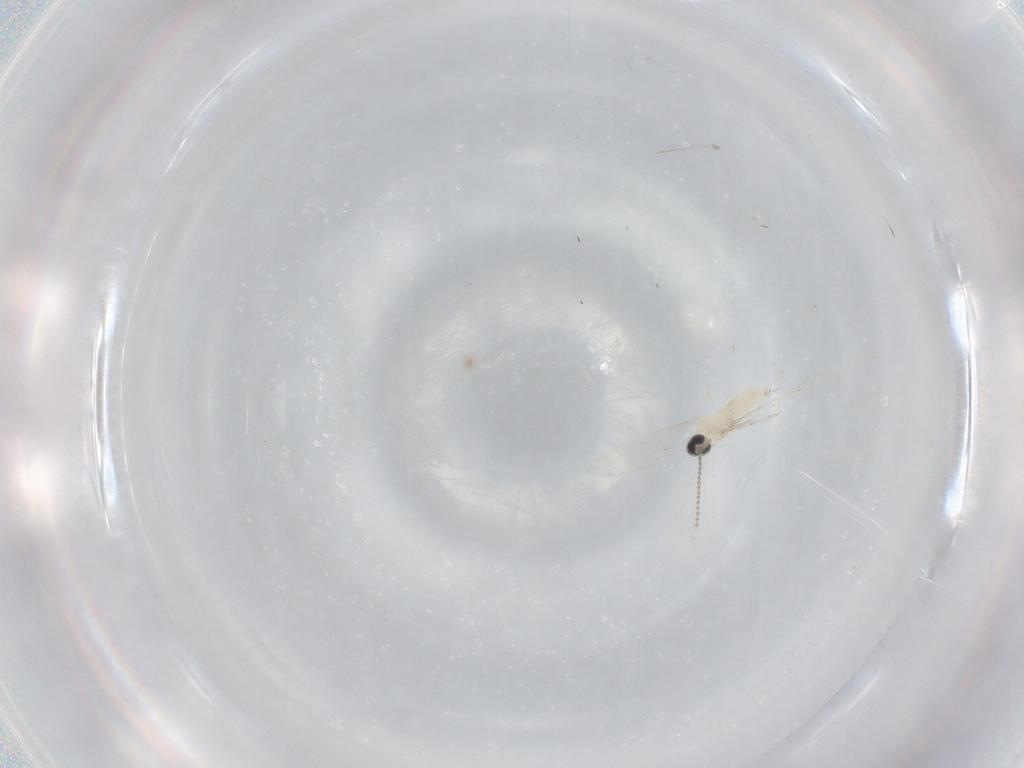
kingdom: Animalia
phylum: Arthropoda
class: Insecta
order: Diptera
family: Cecidomyiidae
